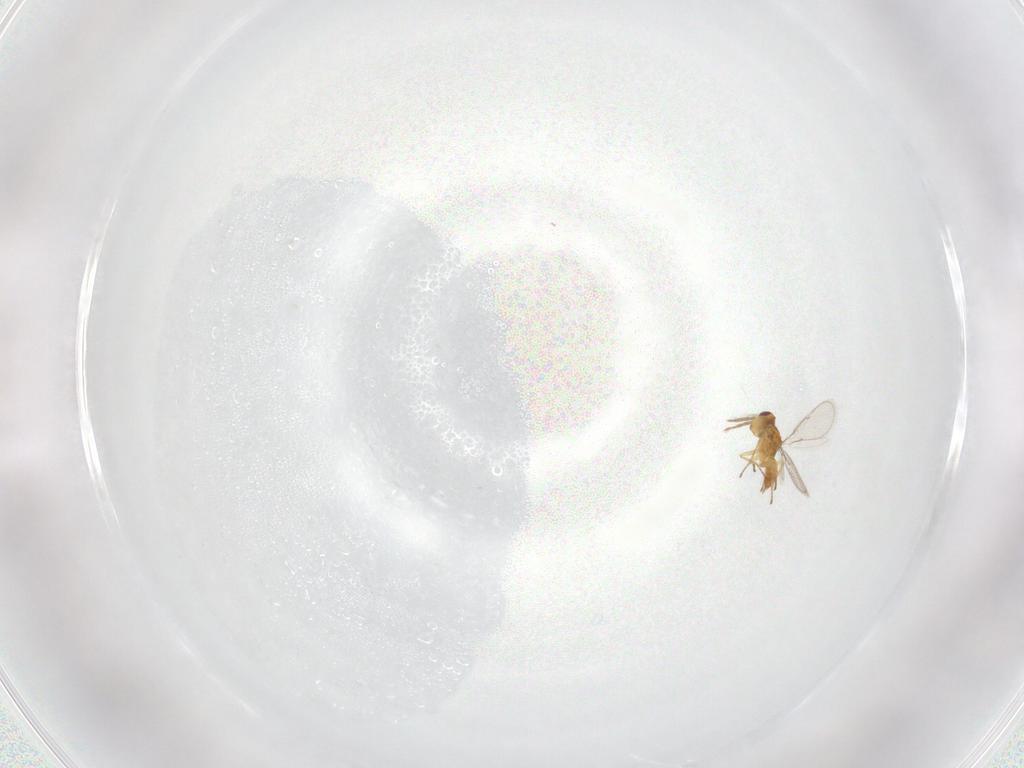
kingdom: Animalia
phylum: Arthropoda
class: Insecta
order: Hymenoptera
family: Eulophidae
